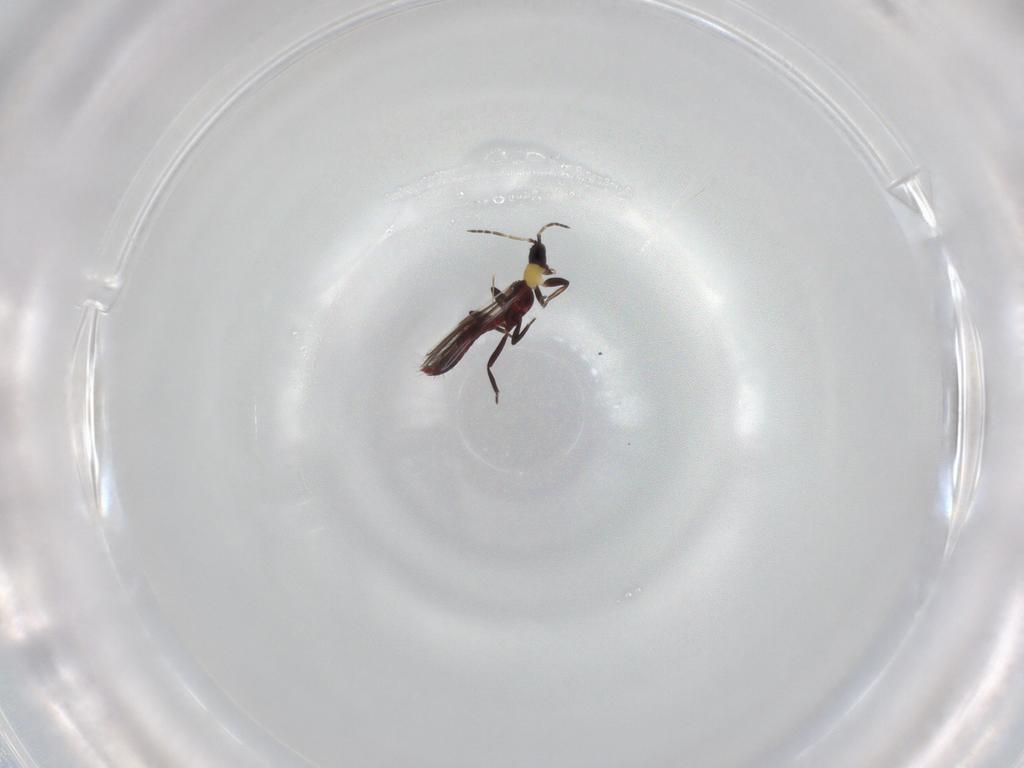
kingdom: Animalia
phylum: Arthropoda
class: Insecta
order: Thysanoptera
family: Aeolothripidae
